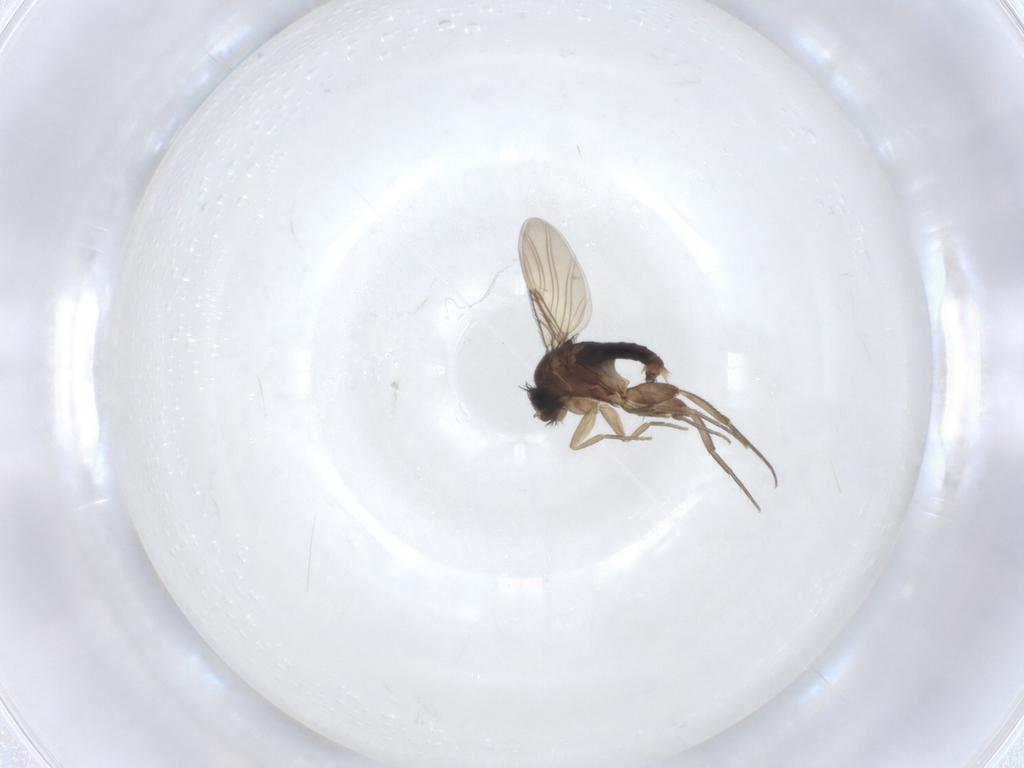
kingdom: Animalia
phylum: Arthropoda
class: Insecta
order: Diptera
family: Phoridae
